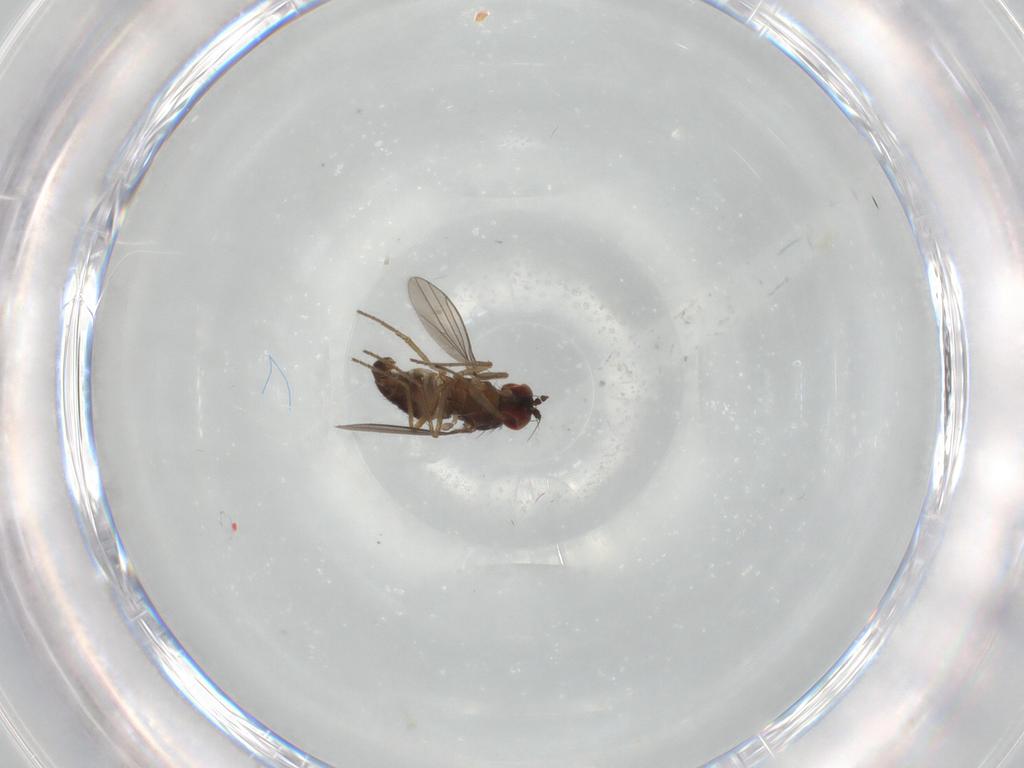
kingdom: Animalia
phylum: Arthropoda
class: Insecta
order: Diptera
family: Dolichopodidae
